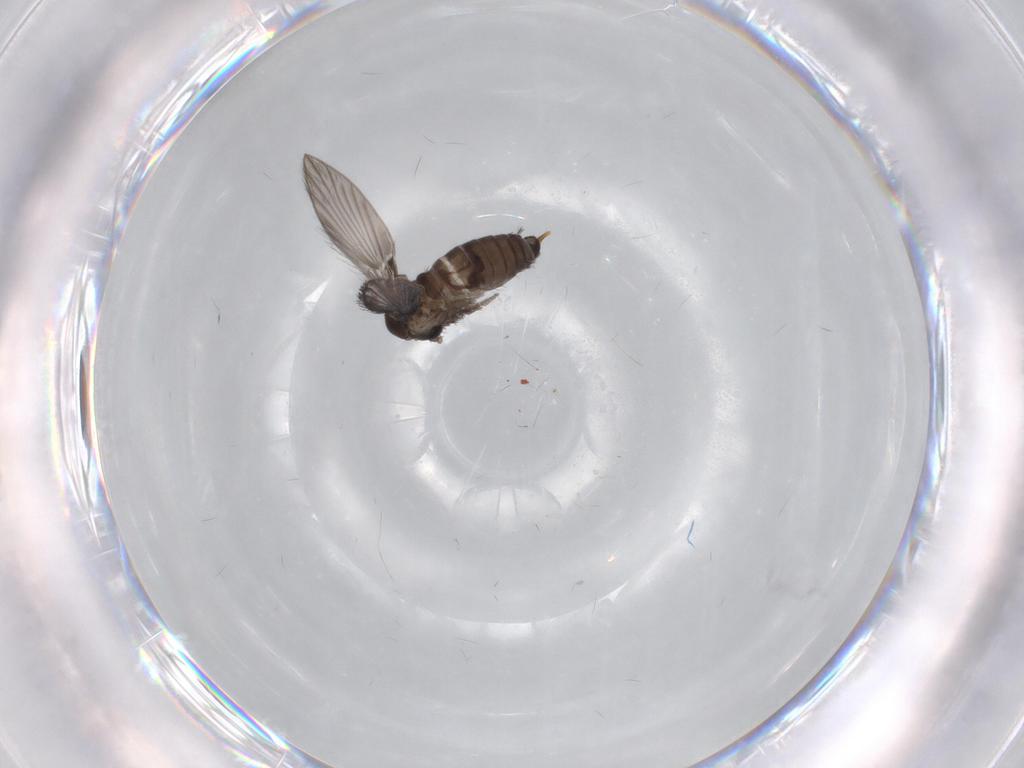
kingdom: Animalia
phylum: Arthropoda
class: Insecta
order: Diptera
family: Psychodidae
